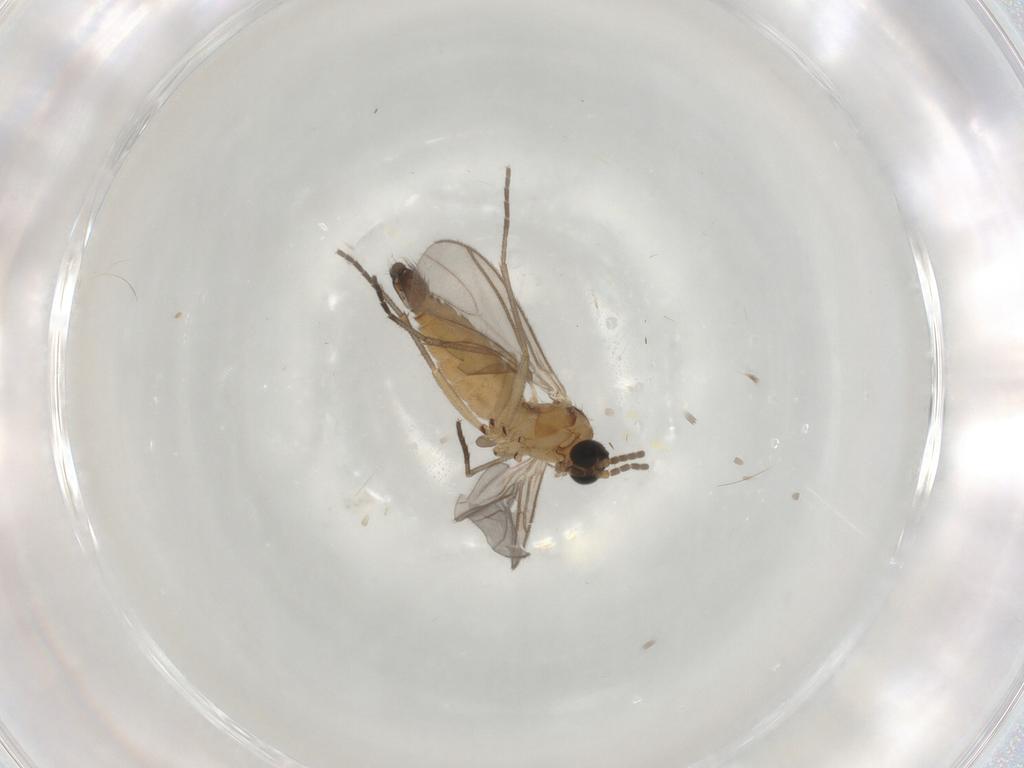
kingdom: Animalia
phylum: Arthropoda
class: Insecta
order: Diptera
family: Sciaridae
